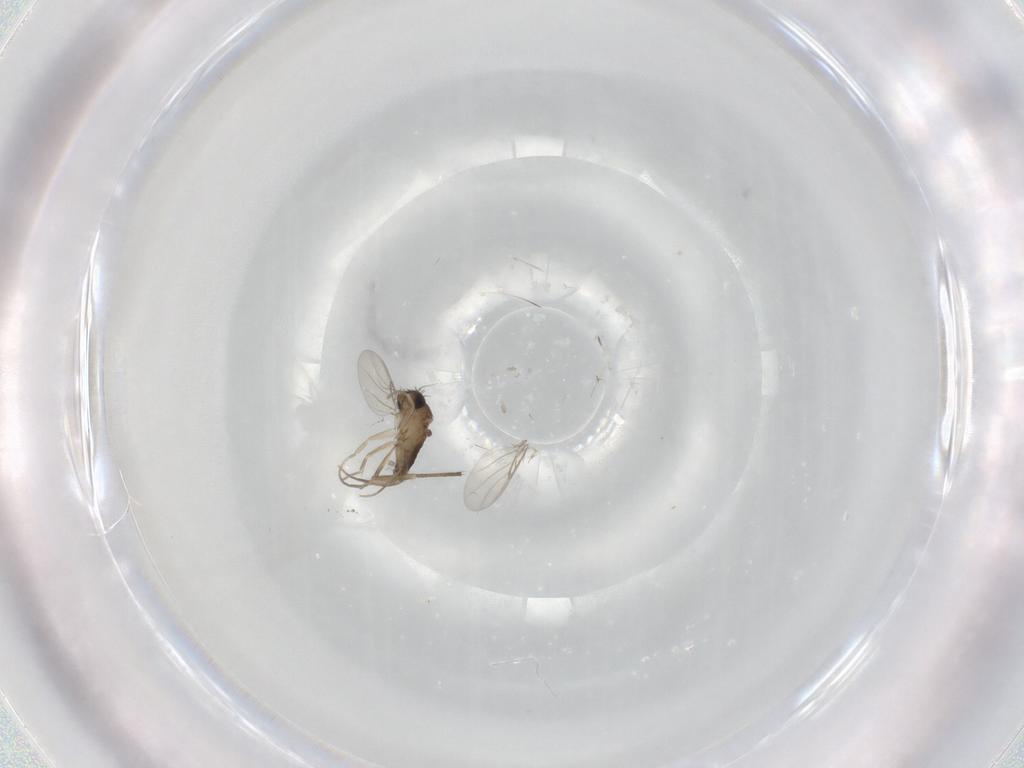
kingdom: Animalia
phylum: Arthropoda
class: Insecta
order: Diptera
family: Phoridae
